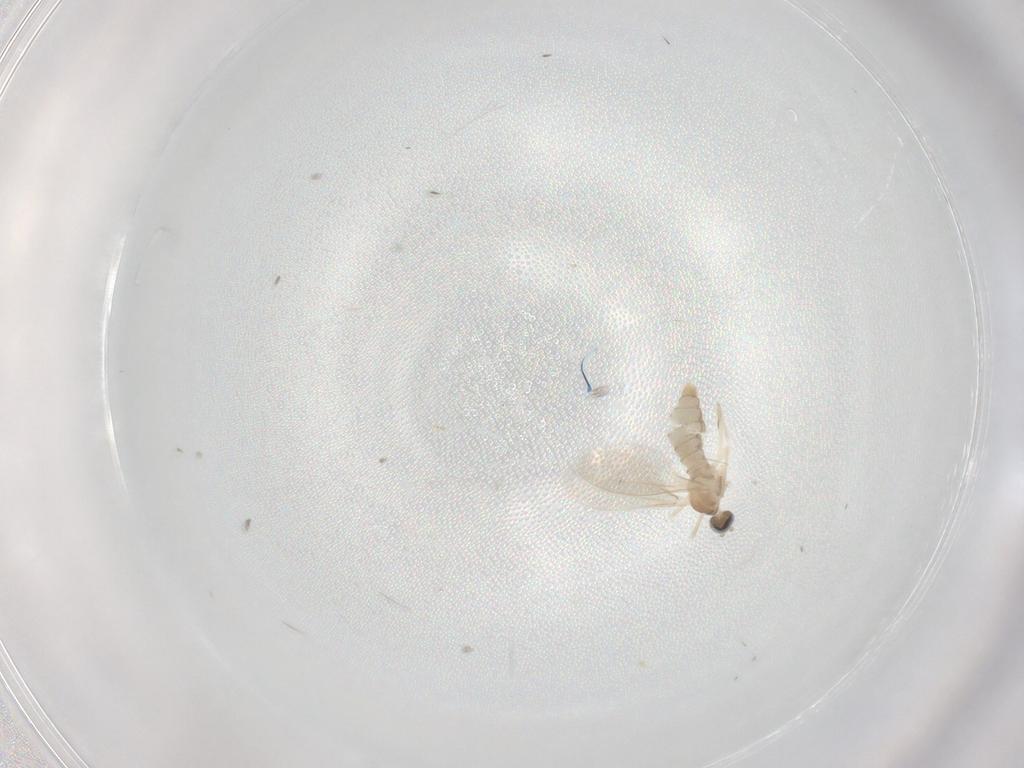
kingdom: Animalia
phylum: Arthropoda
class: Insecta
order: Diptera
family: Cecidomyiidae
